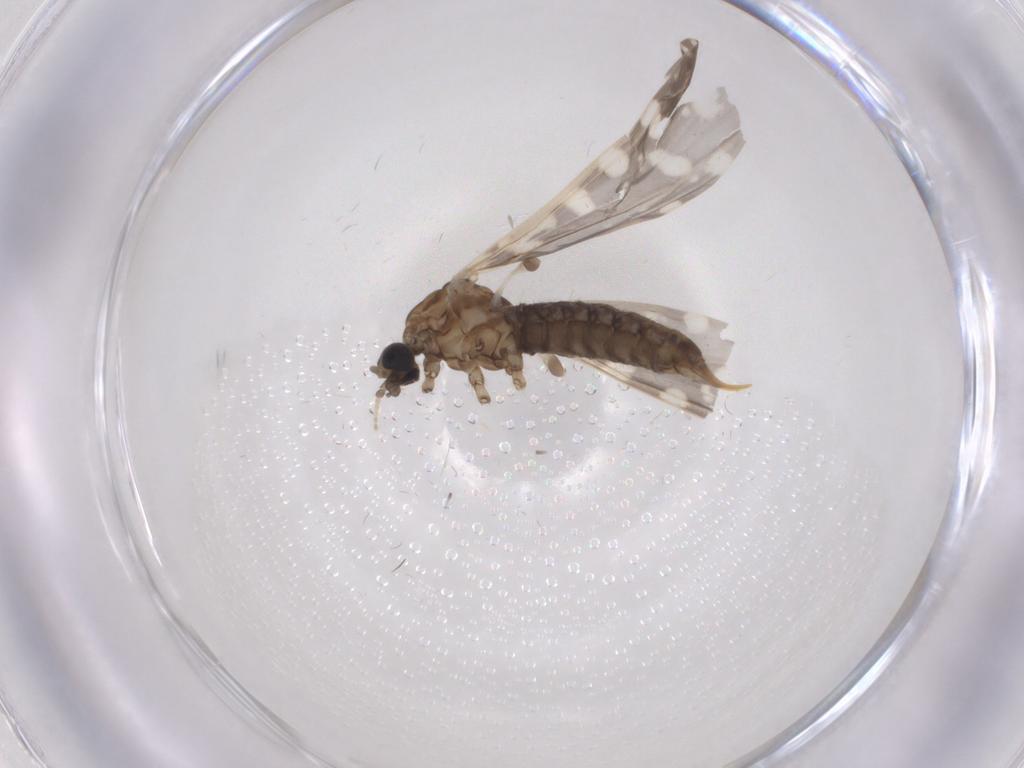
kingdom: Animalia
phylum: Arthropoda
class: Insecta
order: Diptera
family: Limoniidae
